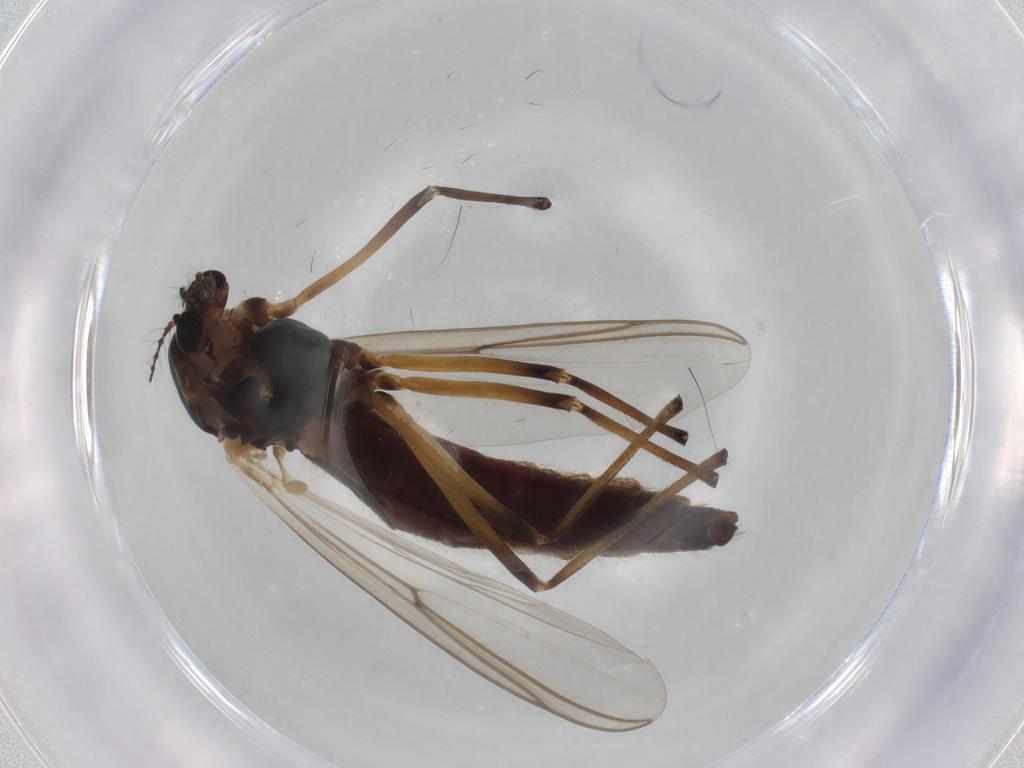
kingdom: Animalia
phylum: Arthropoda
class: Insecta
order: Diptera
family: Chironomidae
